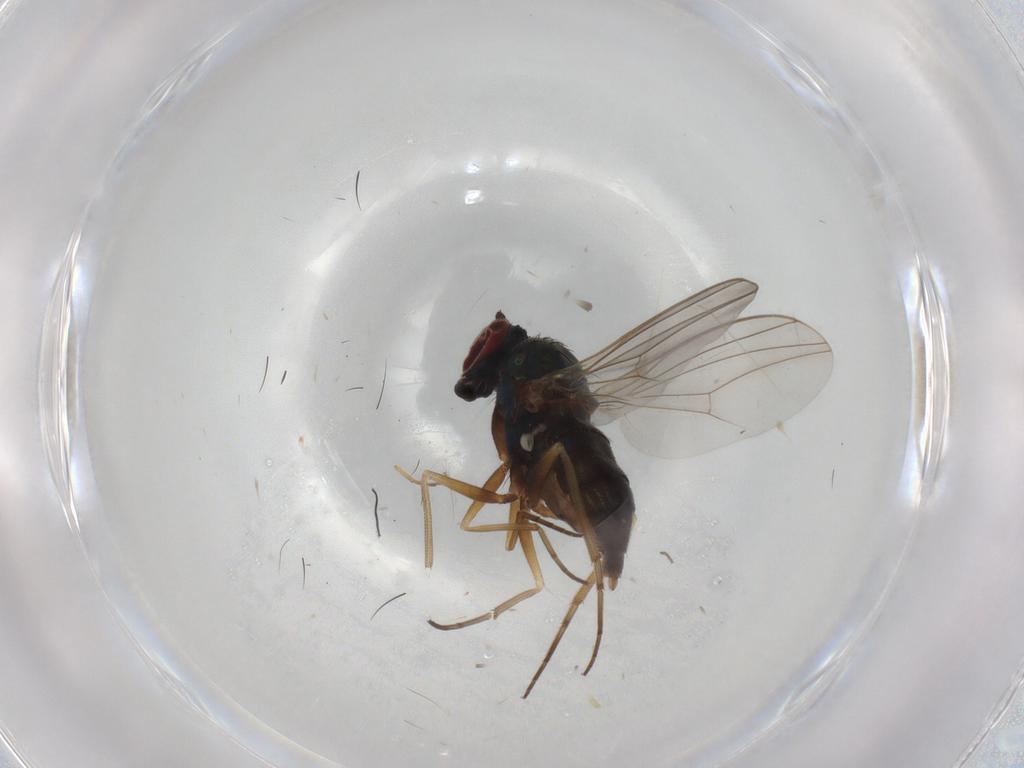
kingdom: Animalia
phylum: Arthropoda
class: Insecta
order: Diptera
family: Dolichopodidae
